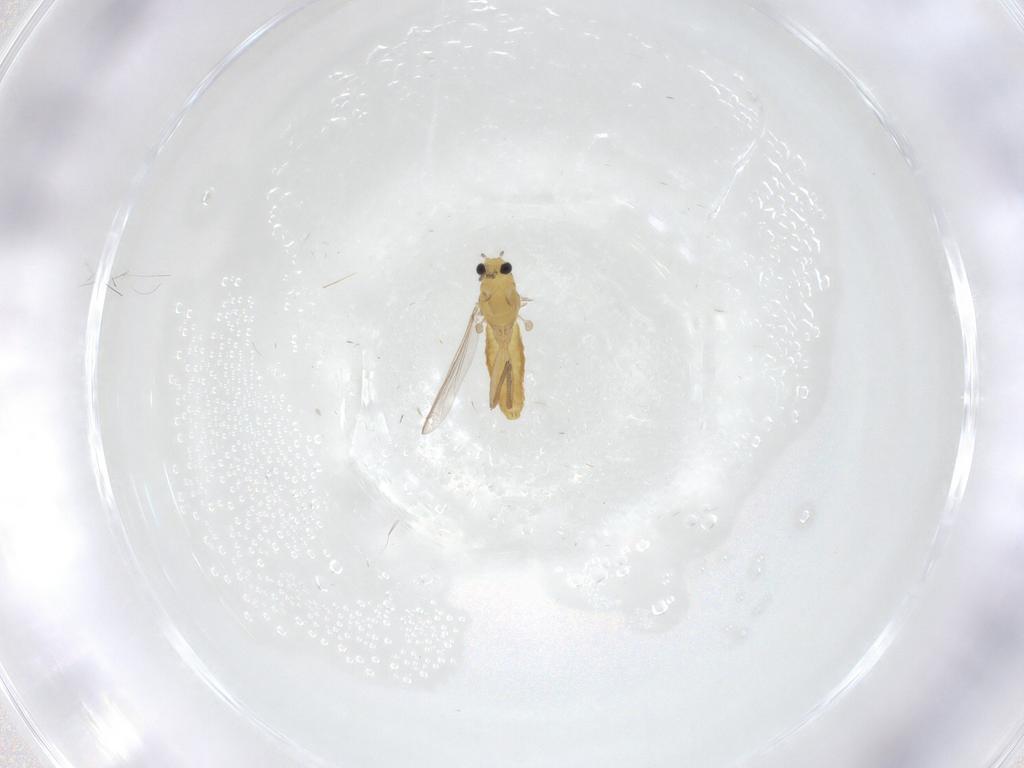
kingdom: Animalia
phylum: Arthropoda
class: Insecta
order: Diptera
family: Chironomidae
